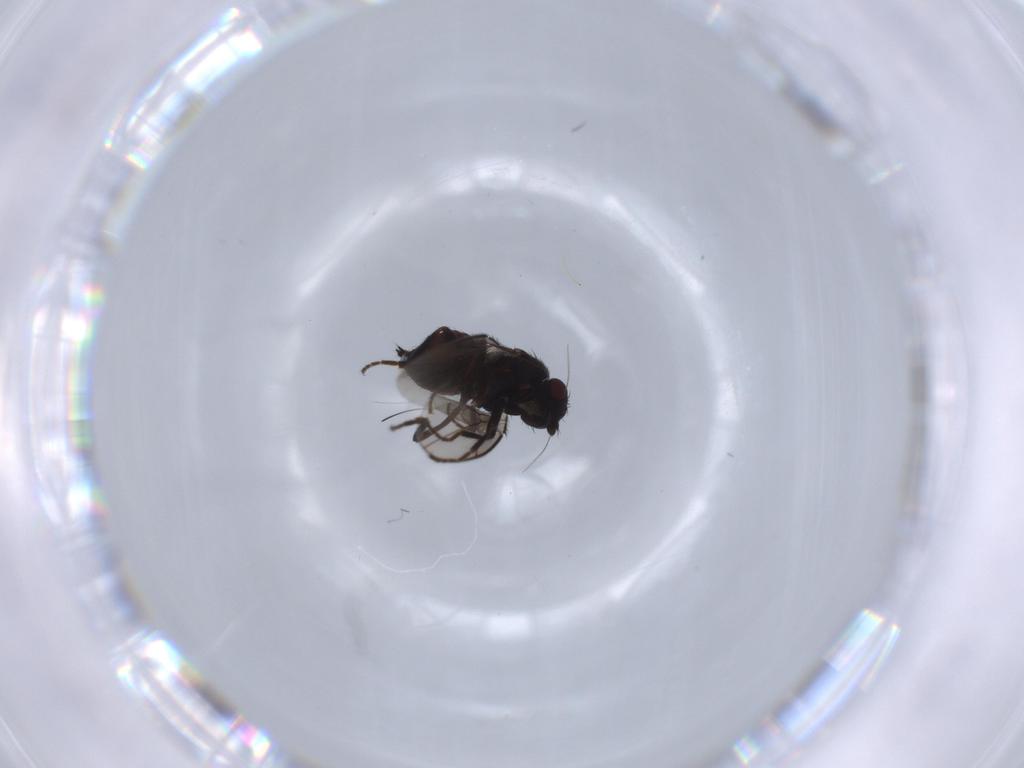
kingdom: Animalia
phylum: Arthropoda
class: Insecta
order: Diptera
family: Sphaeroceridae
